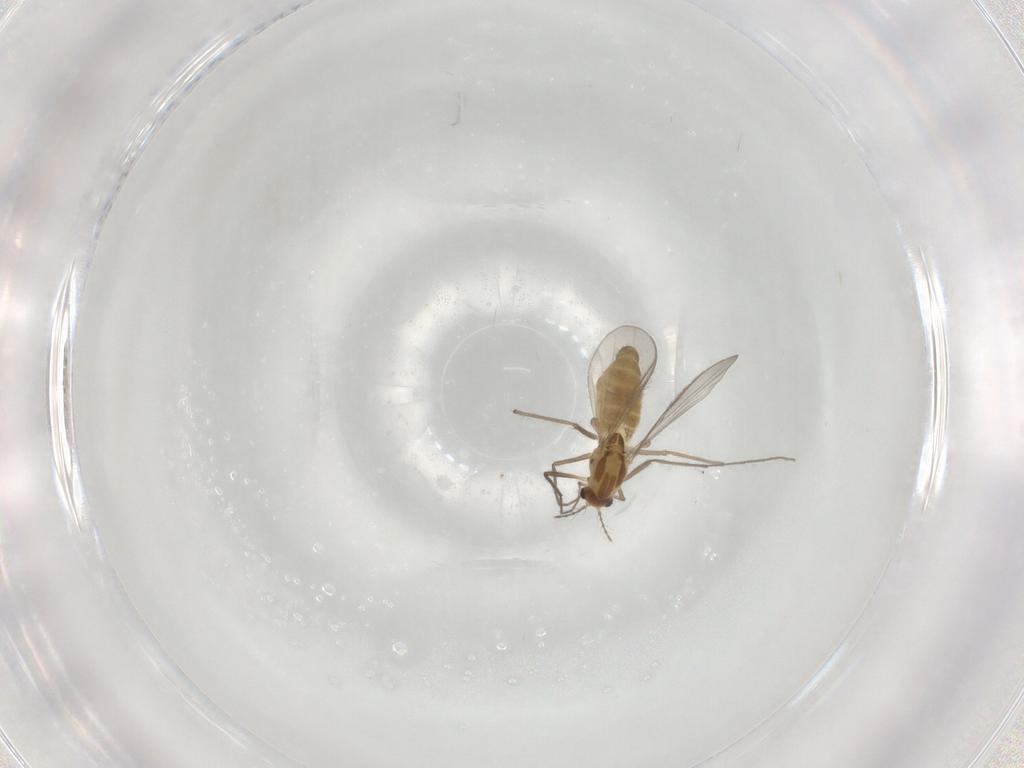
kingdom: Animalia
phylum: Arthropoda
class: Insecta
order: Diptera
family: Chironomidae
